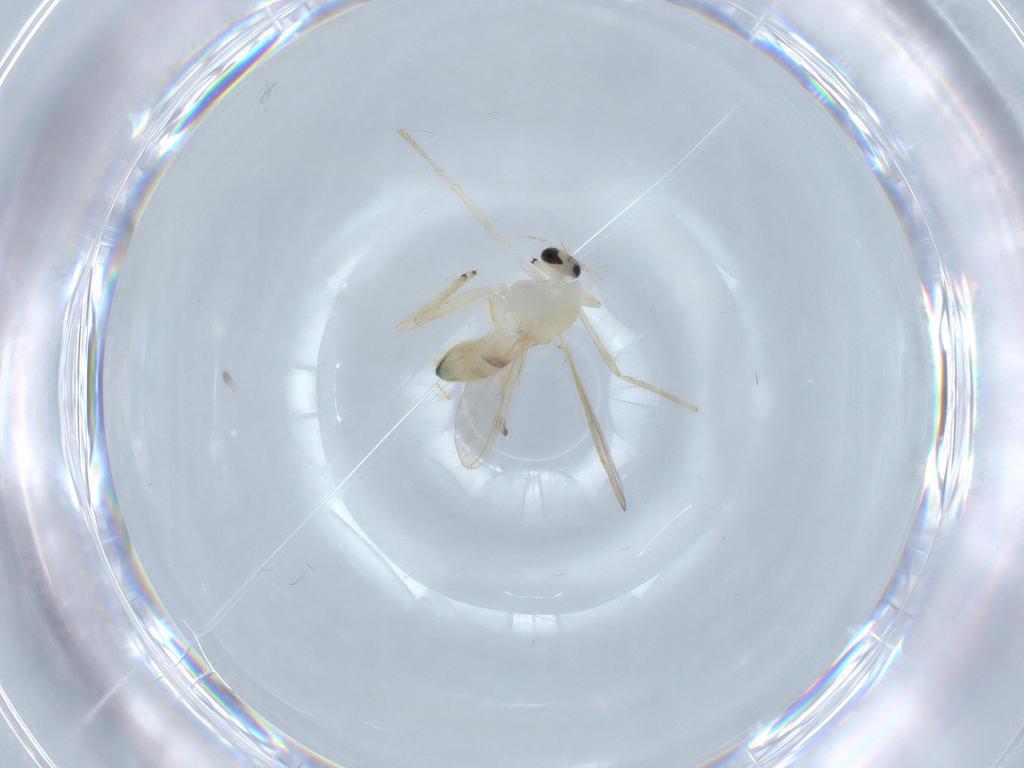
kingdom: Animalia
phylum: Arthropoda
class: Insecta
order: Diptera
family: Chironomidae
